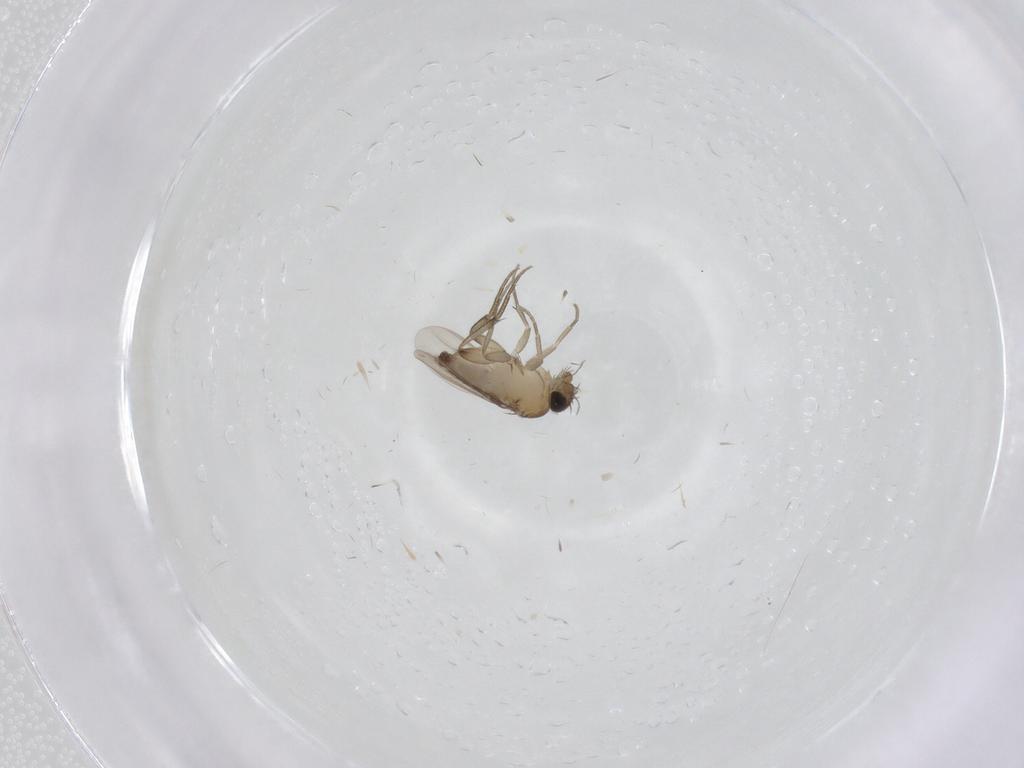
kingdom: Animalia
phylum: Arthropoda
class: Insecta
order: Diptera
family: Phoridae
